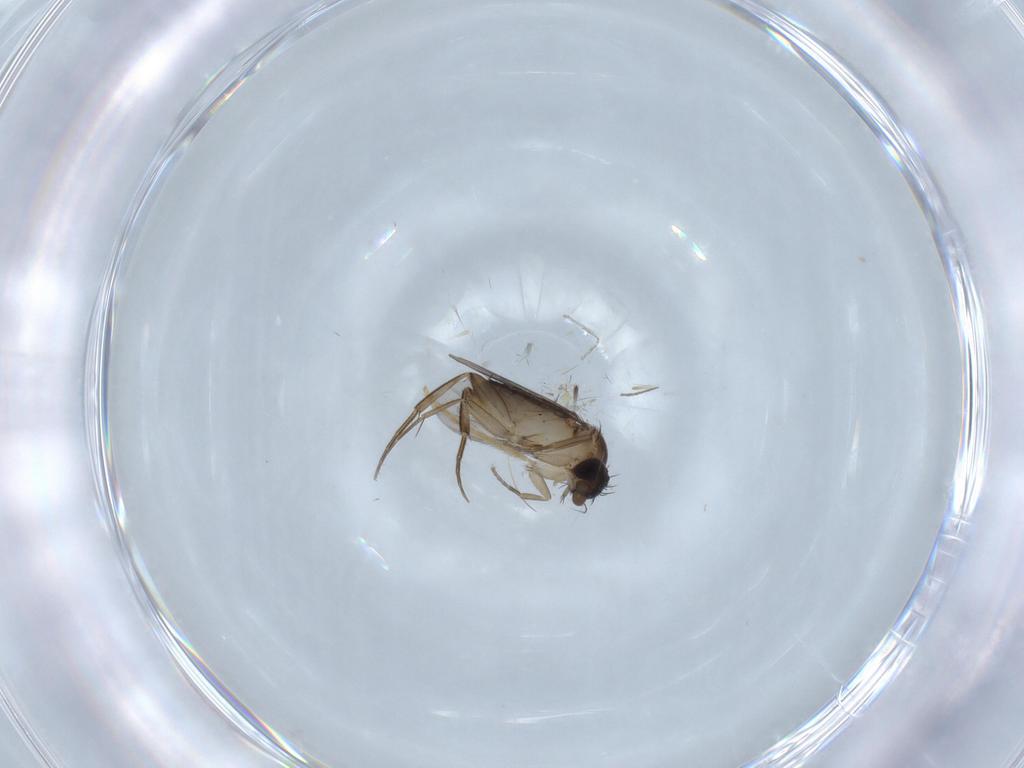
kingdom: Animalia
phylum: Arthropoda
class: Insecta
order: Diptera
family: Phoridae
